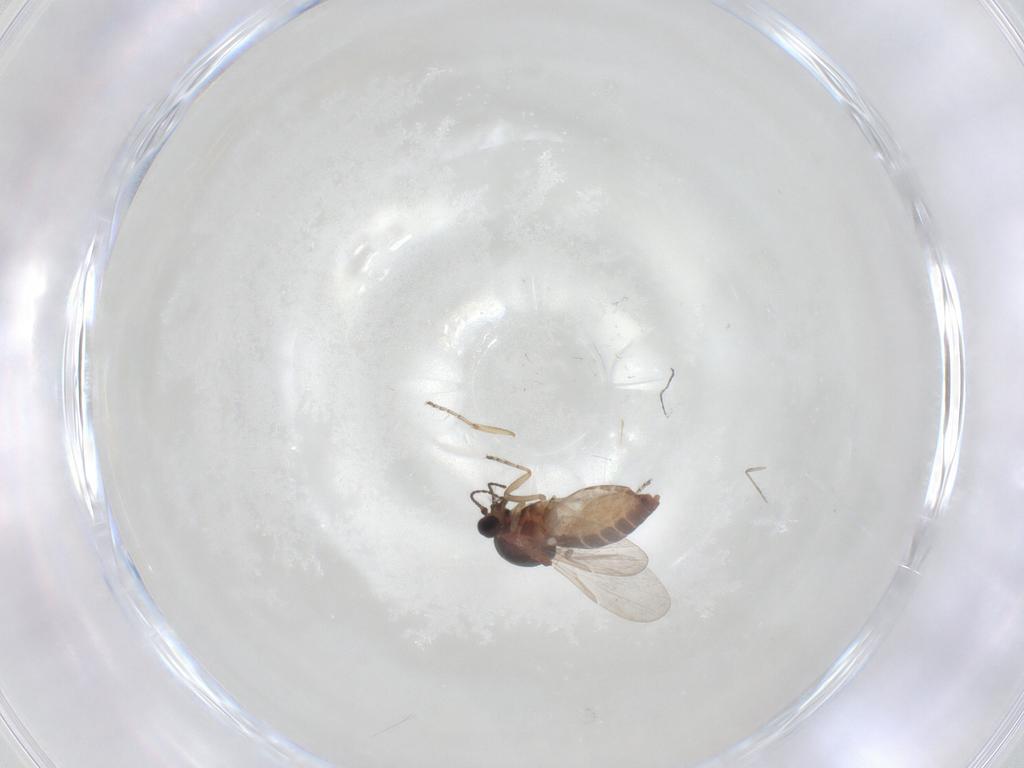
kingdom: Animalia
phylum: Arthropoda
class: Insecta
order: Diptera
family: Ceratopogonidae
